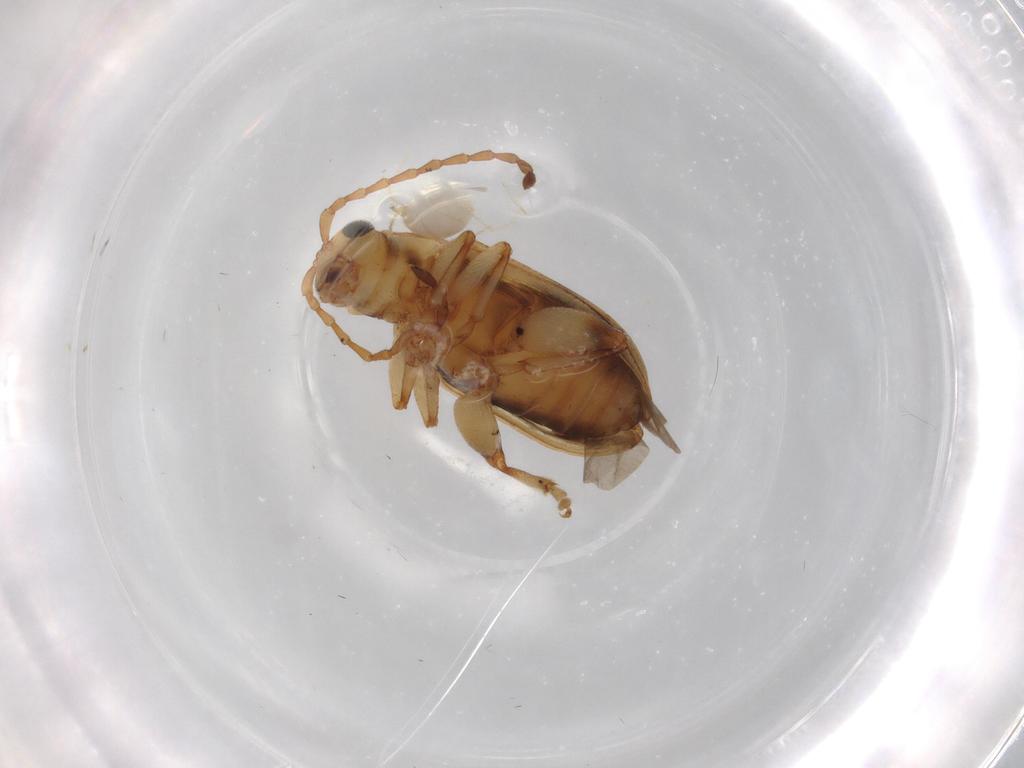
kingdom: Animalia
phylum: Arthropoda
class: Insecta
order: Coleoptera
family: Chrysomelidae
